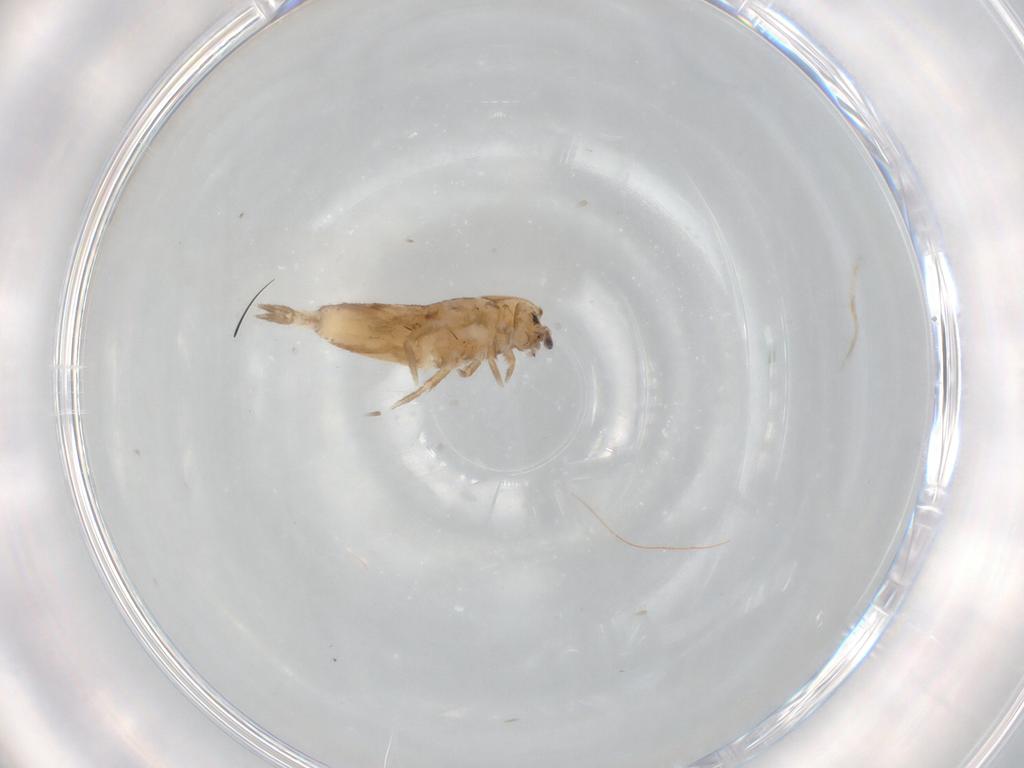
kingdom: Animalia
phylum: Arthropoda
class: Collembola
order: Entomobryomorpha
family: Entomobryidae
